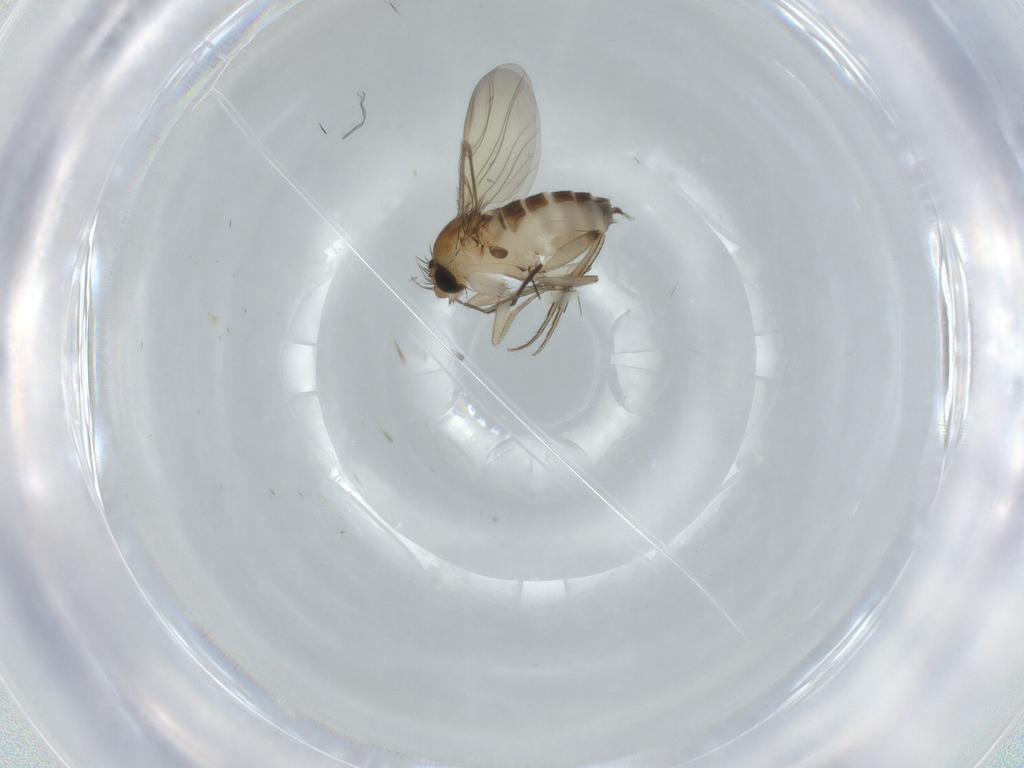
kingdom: Animalia
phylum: Arthropoda
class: Insecta
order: Diptera
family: Phoridae
